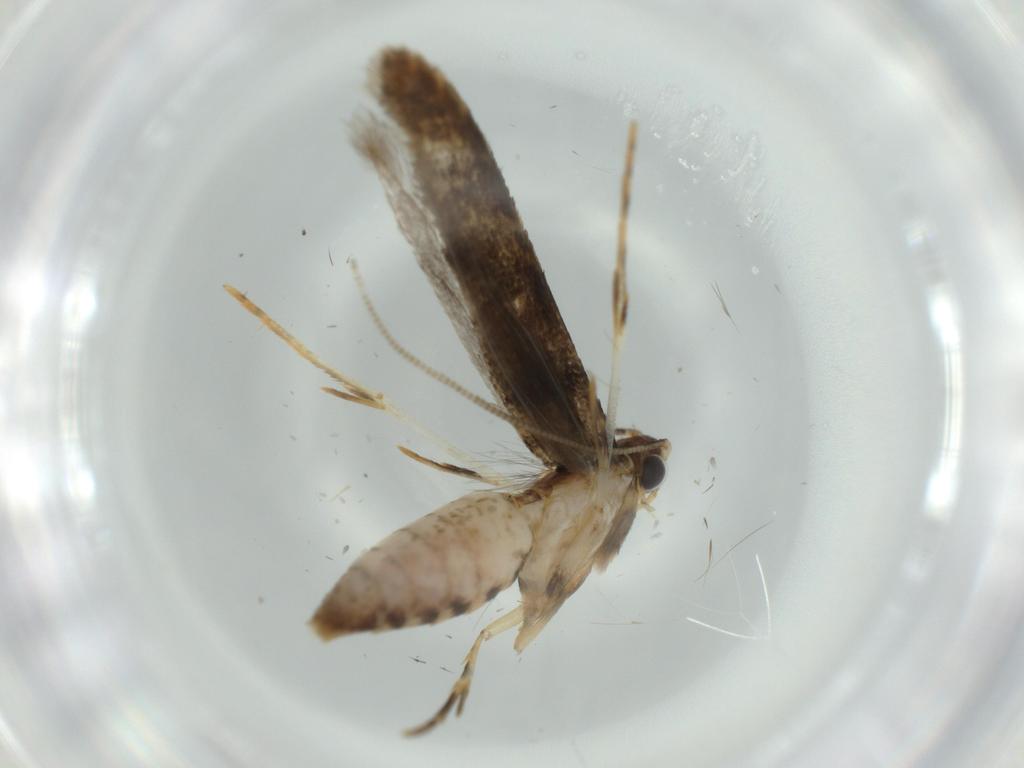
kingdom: Animalia
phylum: Arthropoda
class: Insecta
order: Lepidoptera
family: Tineidae
